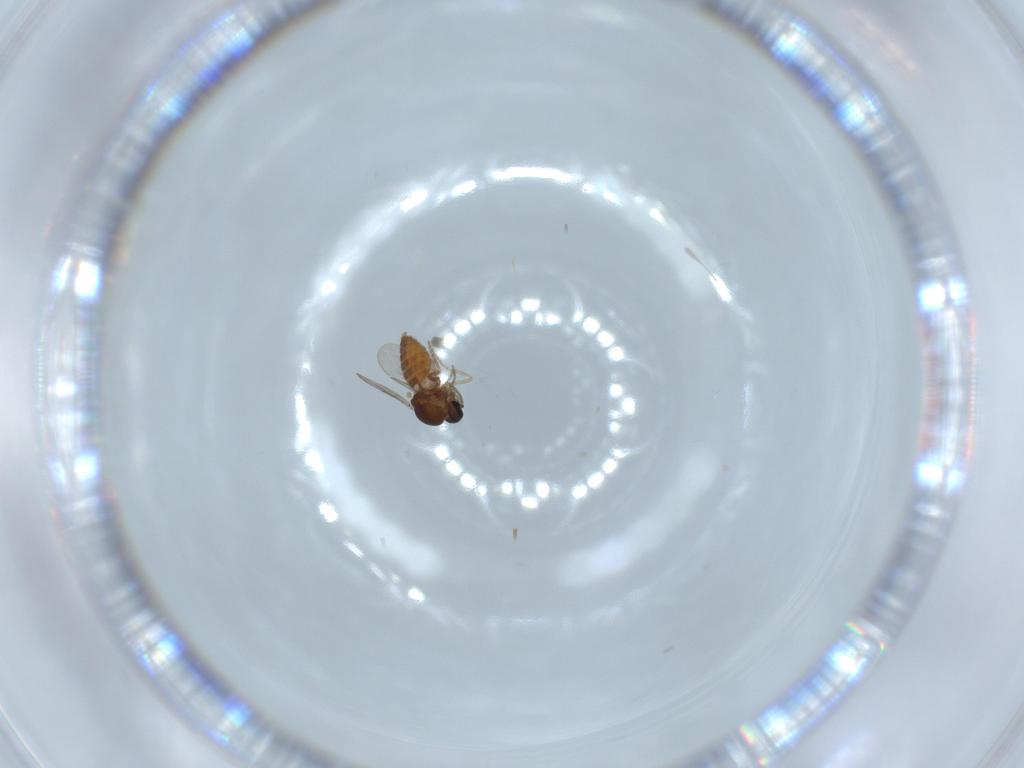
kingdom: Animalia
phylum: Arthropoda
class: Insecta
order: Diptera
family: Ceratopogonidae
